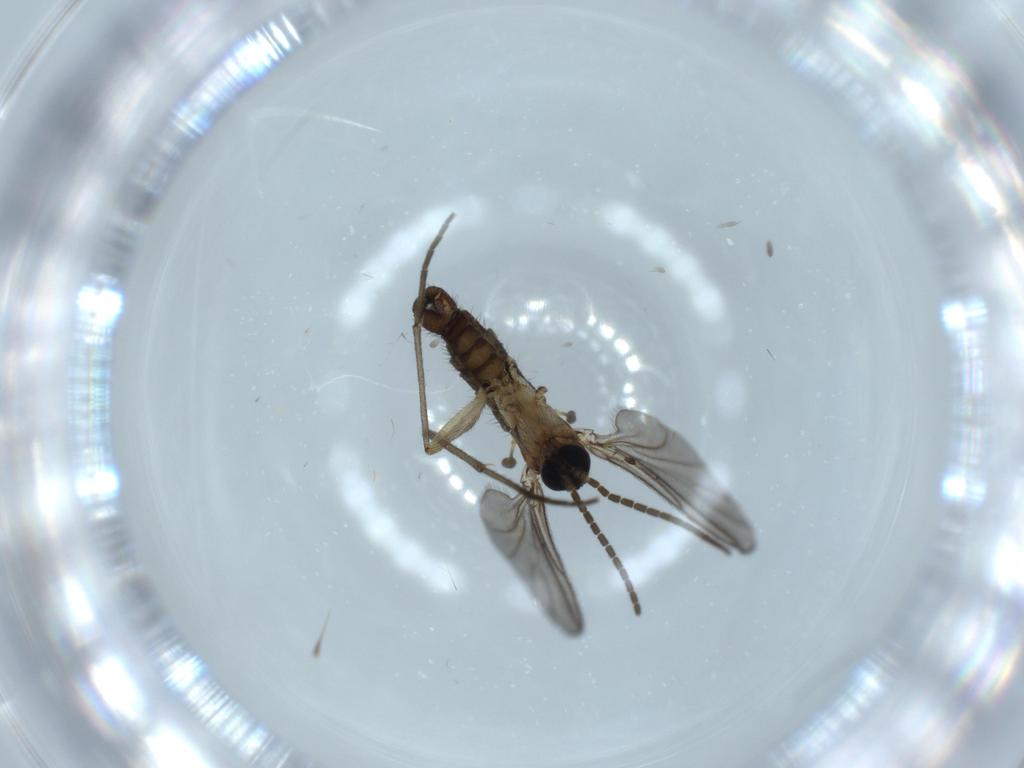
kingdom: Animalia
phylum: Arthropoda
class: Insecta
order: Diptera
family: Sciaridae
